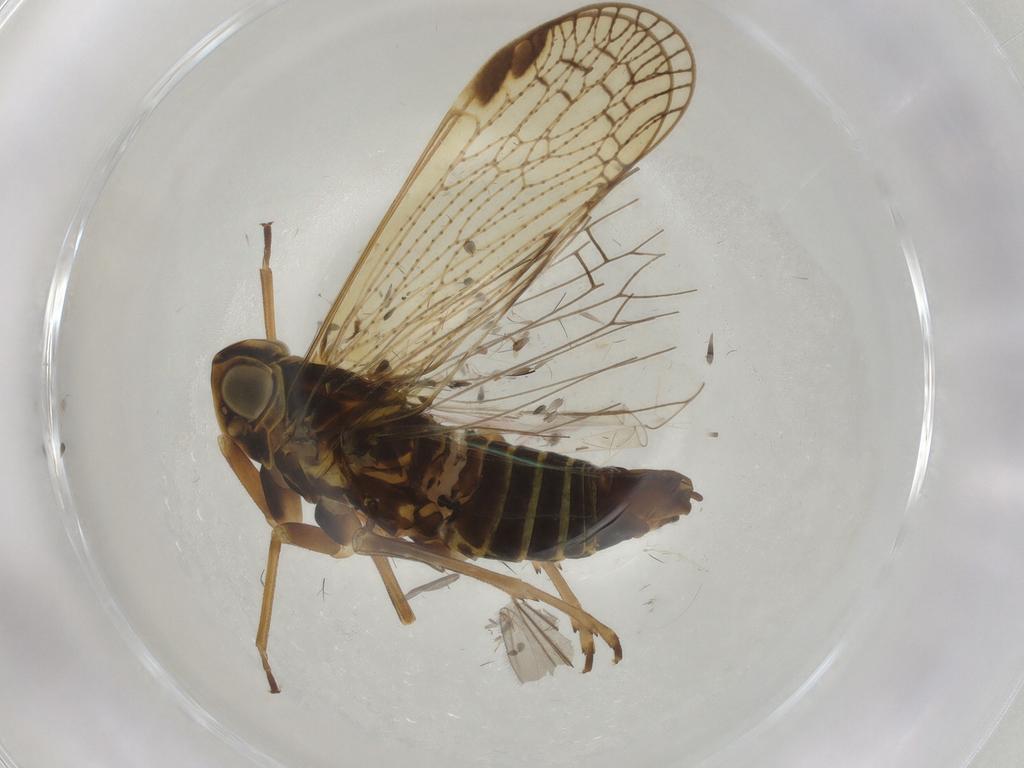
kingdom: Animalia
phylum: Arthropoda
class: Insecta
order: Hemiptera
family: Cixiidae
